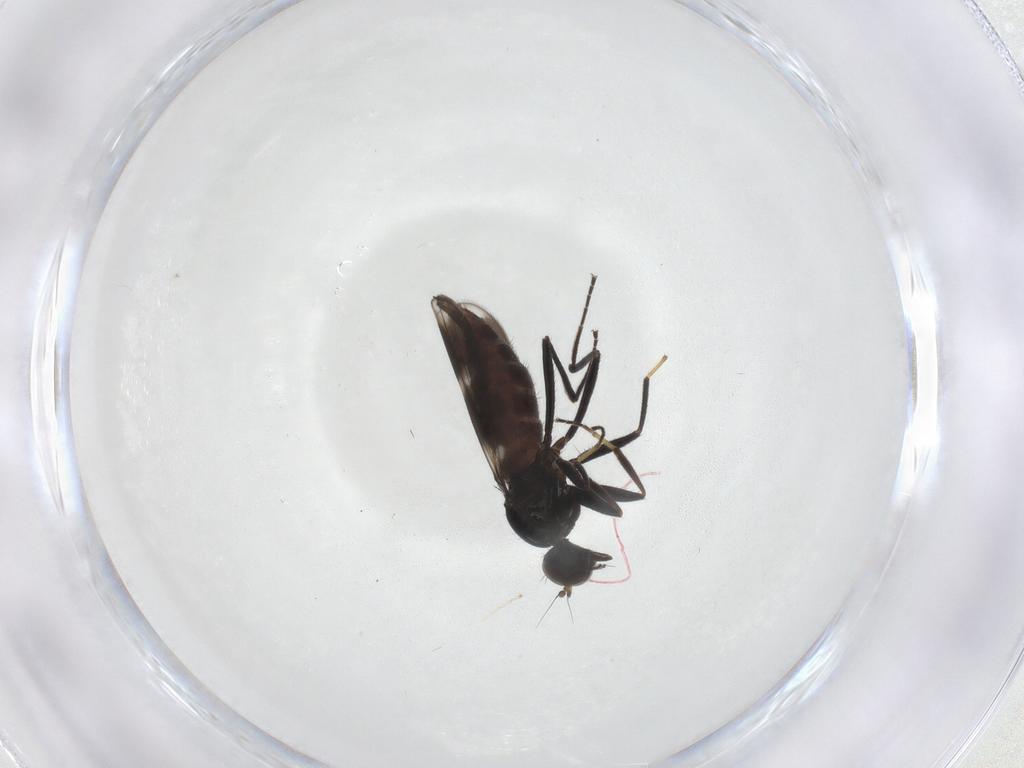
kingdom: Animalia
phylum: Arthropoda
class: Insecta
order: Diptera
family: Hybotidae
